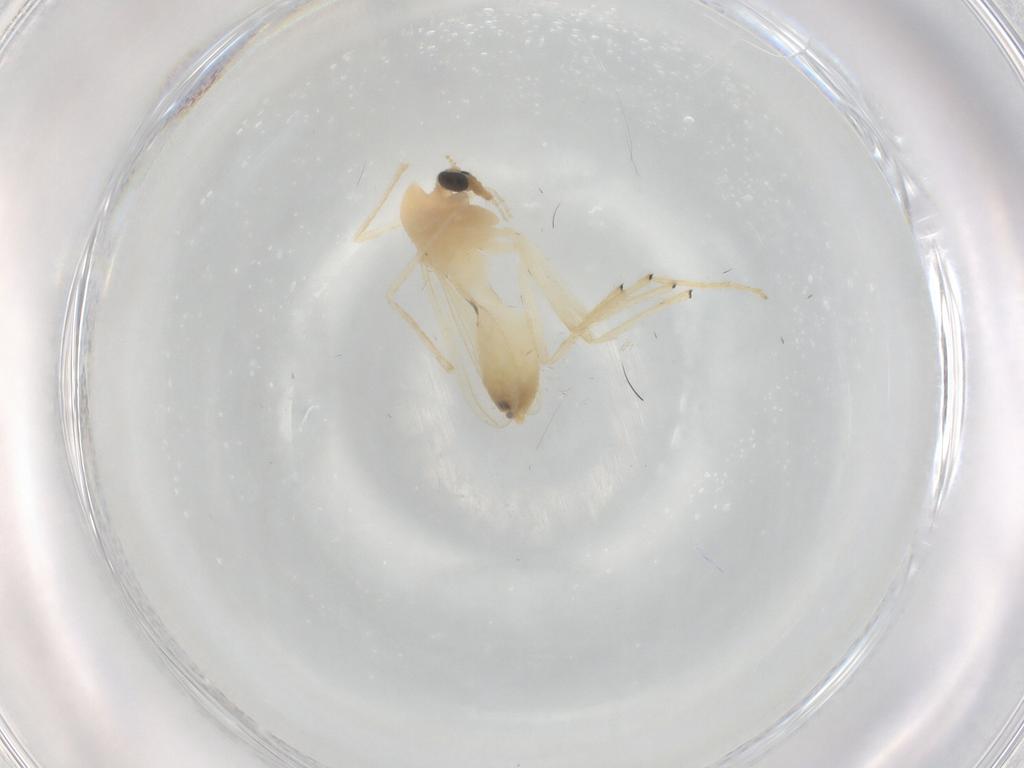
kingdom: Animalia
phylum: Arthropoda
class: Insecta
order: Diptera
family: Chironomidae
